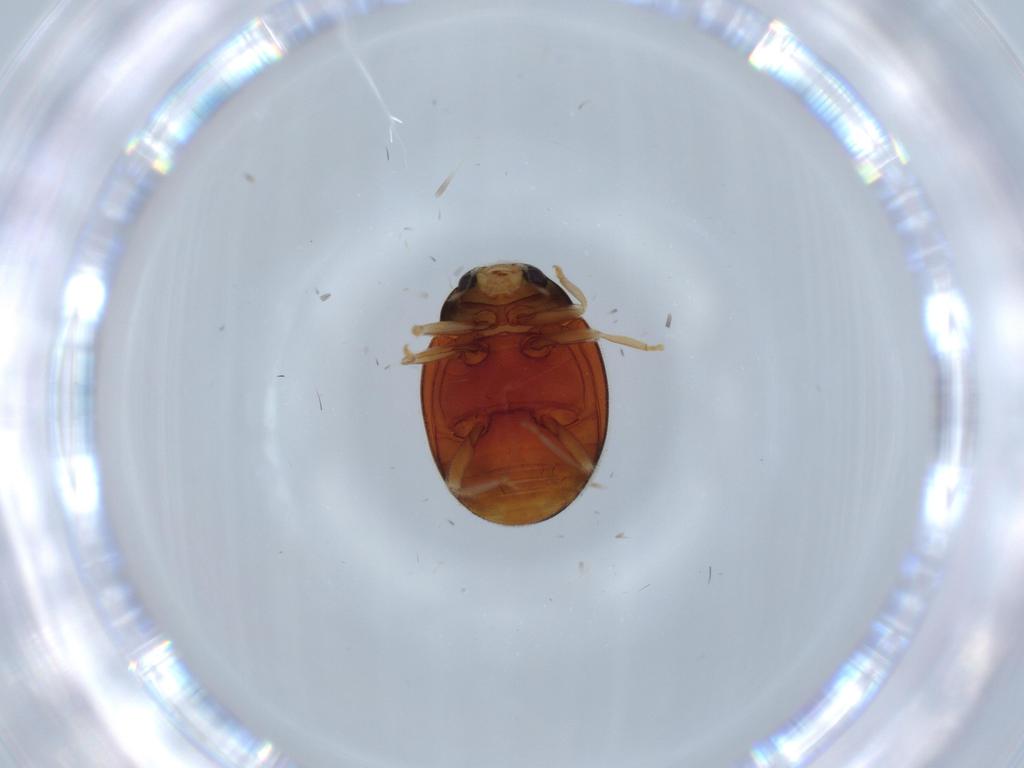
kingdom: Animalia
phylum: Arthropoda
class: Insecta
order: Coleoptera
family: Coccinellidae
